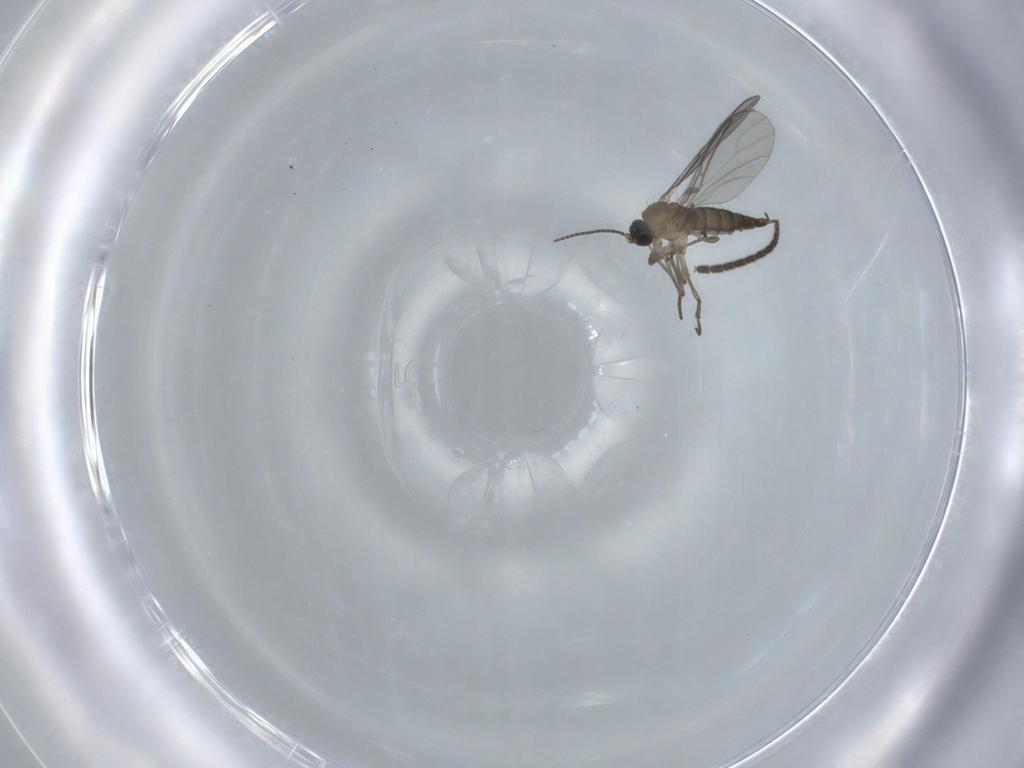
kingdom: Animalia
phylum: Arthropoda
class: Insecta
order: Diptera
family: Sciaridae
